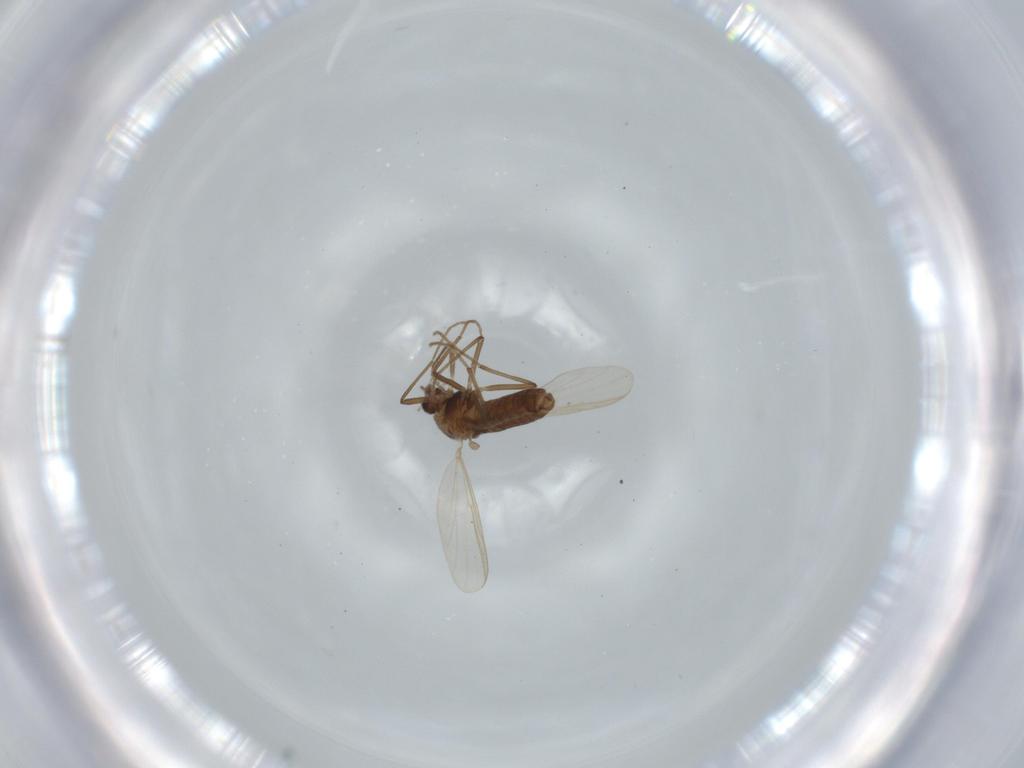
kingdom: Animalia
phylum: Arthropoda
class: Insecta
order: Diptera
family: Chironomidae
